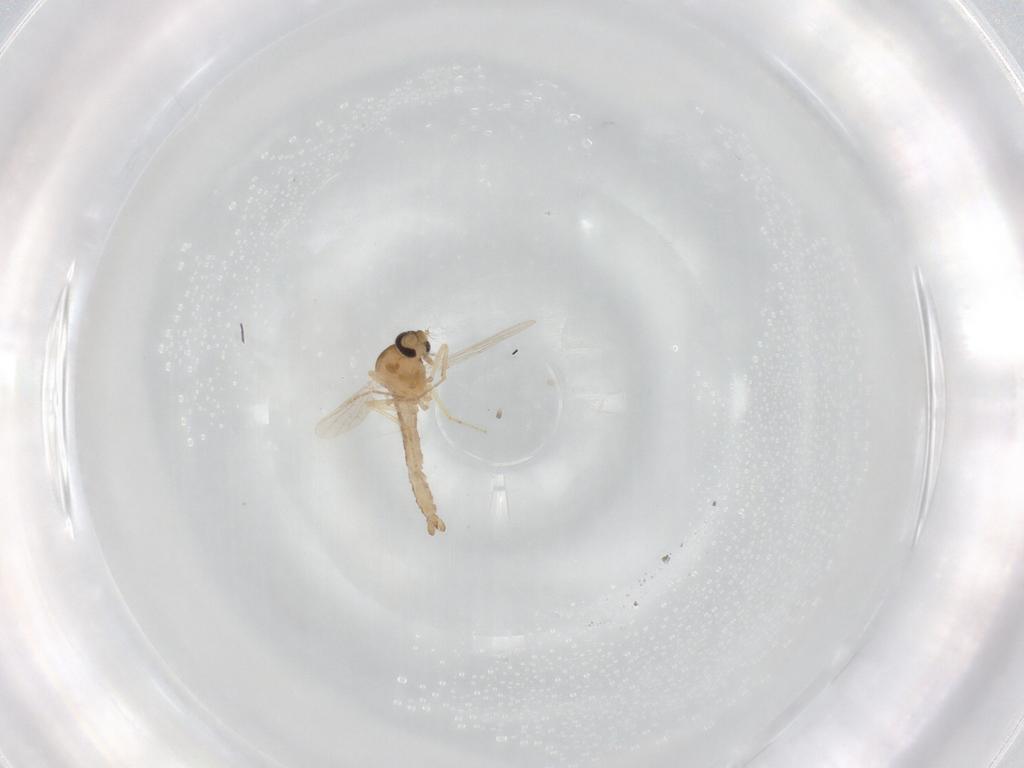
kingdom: Animalia
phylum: Arthropoda
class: Insecta
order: Diptera
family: Ceratopogonidae
